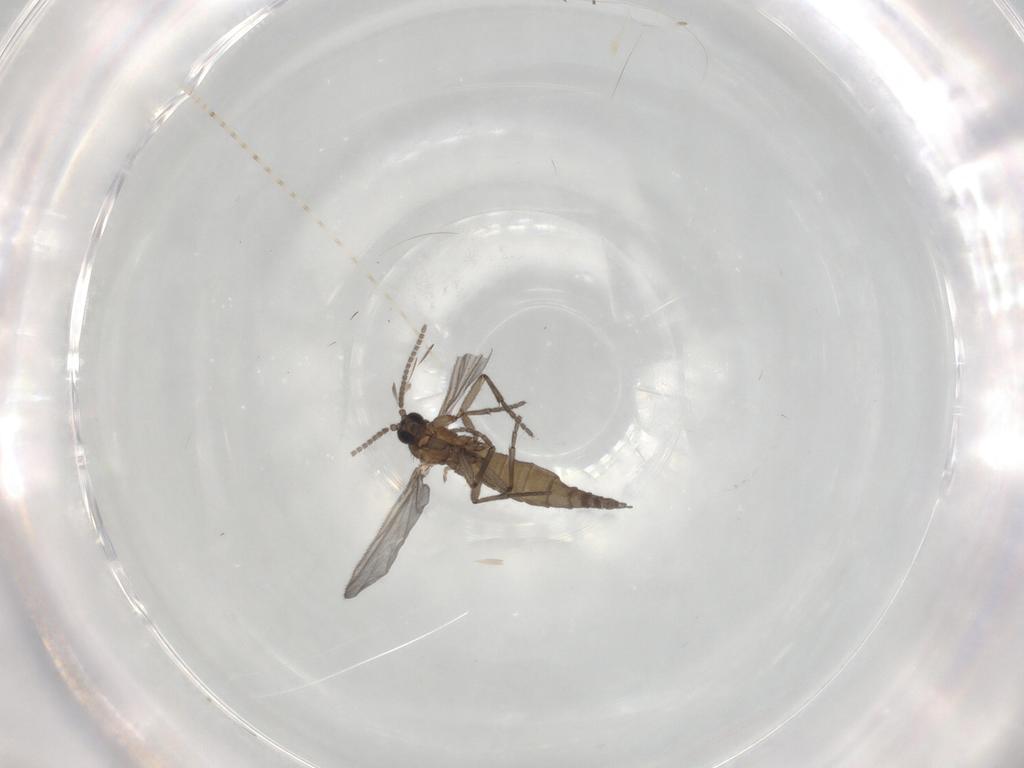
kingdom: Animalia
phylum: Arthropoda
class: Insecta
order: Diptera
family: Sciaridae
